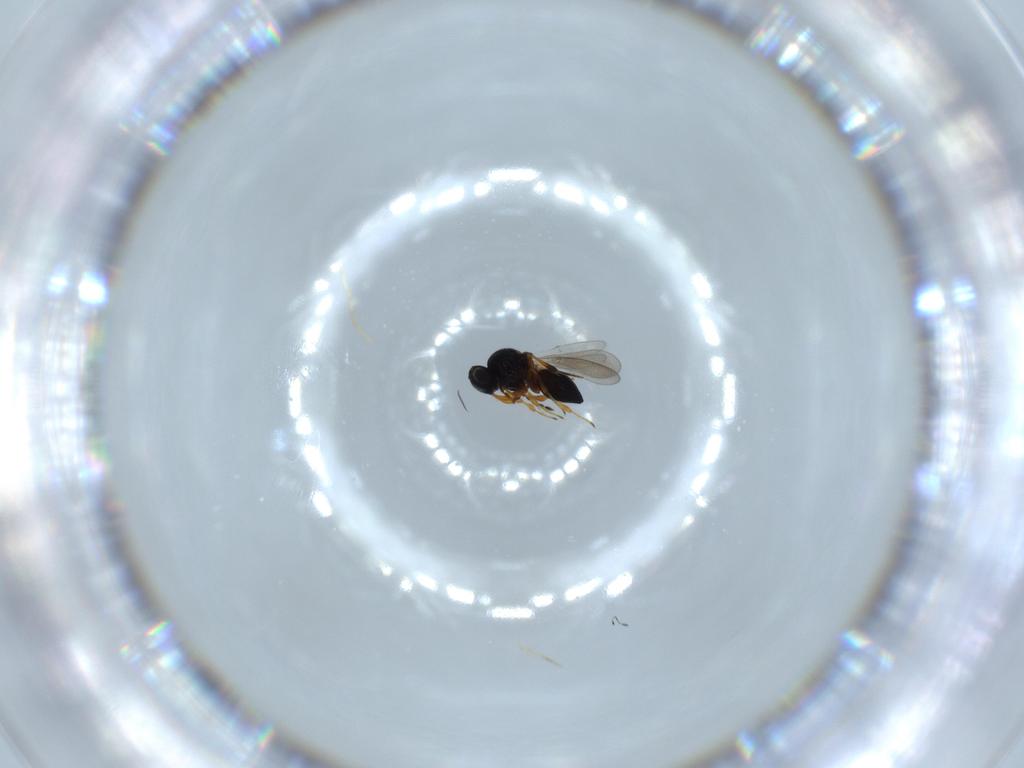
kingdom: Animalia
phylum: Arthropoda
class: Insecta
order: Hymenoptera
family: Platygastridae
